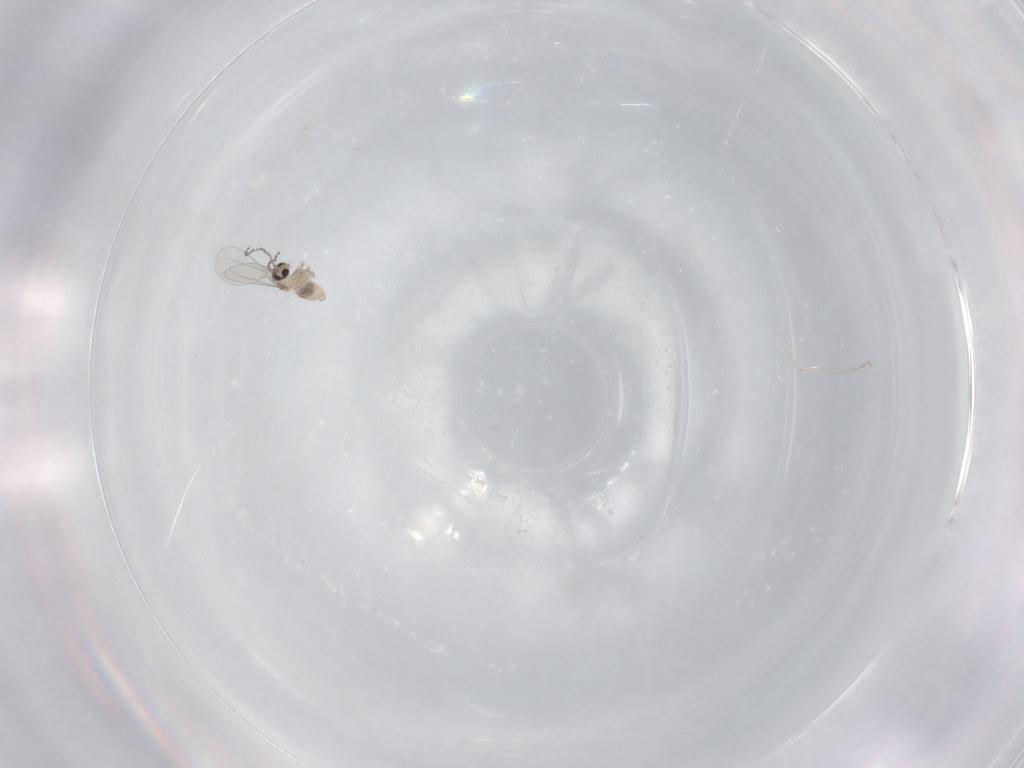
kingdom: Animalia
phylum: Arthropoda
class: Insecta
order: Diptera
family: Cecidomyiidae
